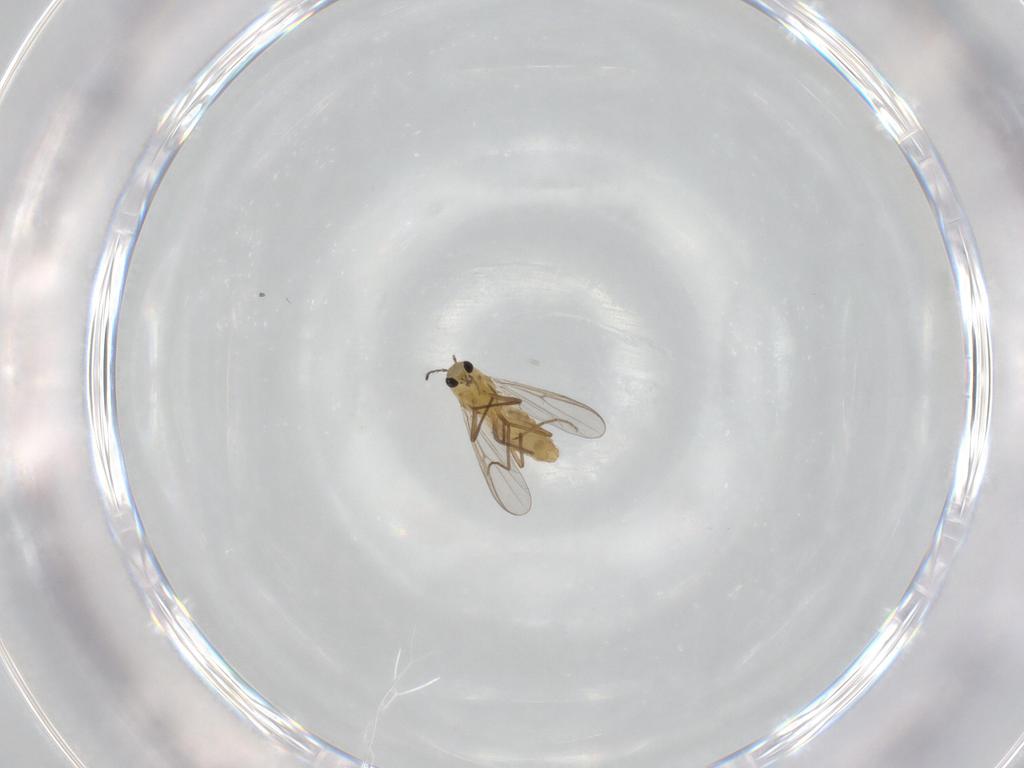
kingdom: Animalia
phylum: Arthropoda
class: Insecta
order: Diptera
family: Chironomidae
